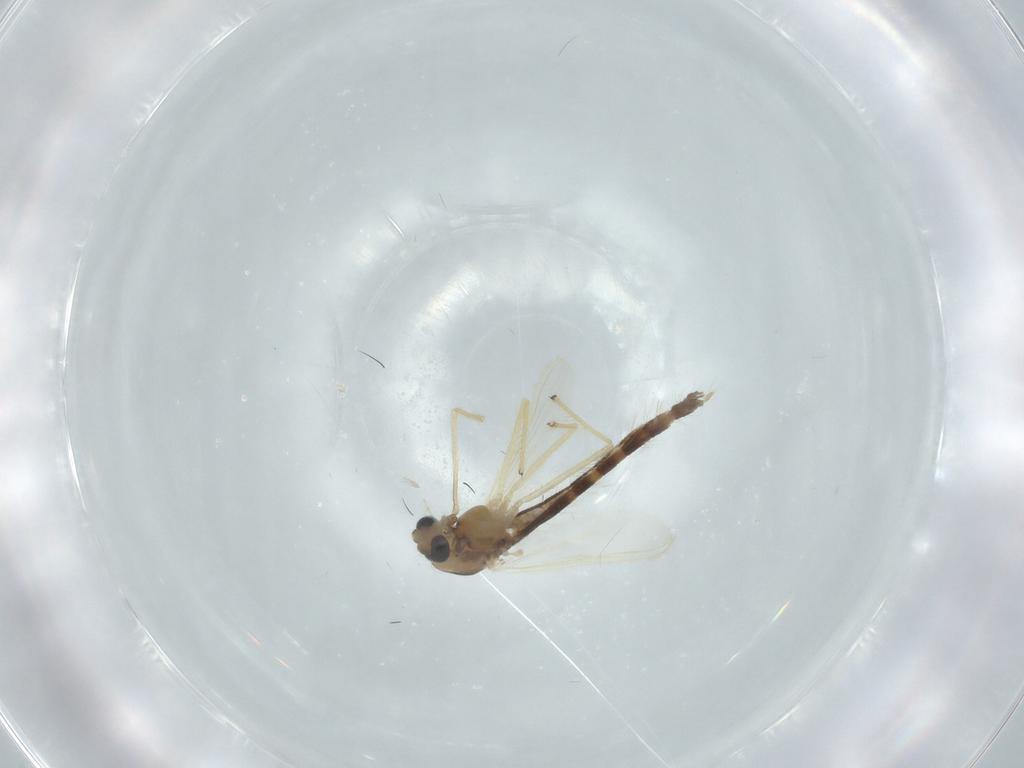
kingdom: Animalia
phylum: Arthropoda
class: Insecta
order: Diptera
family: Chironomidae
